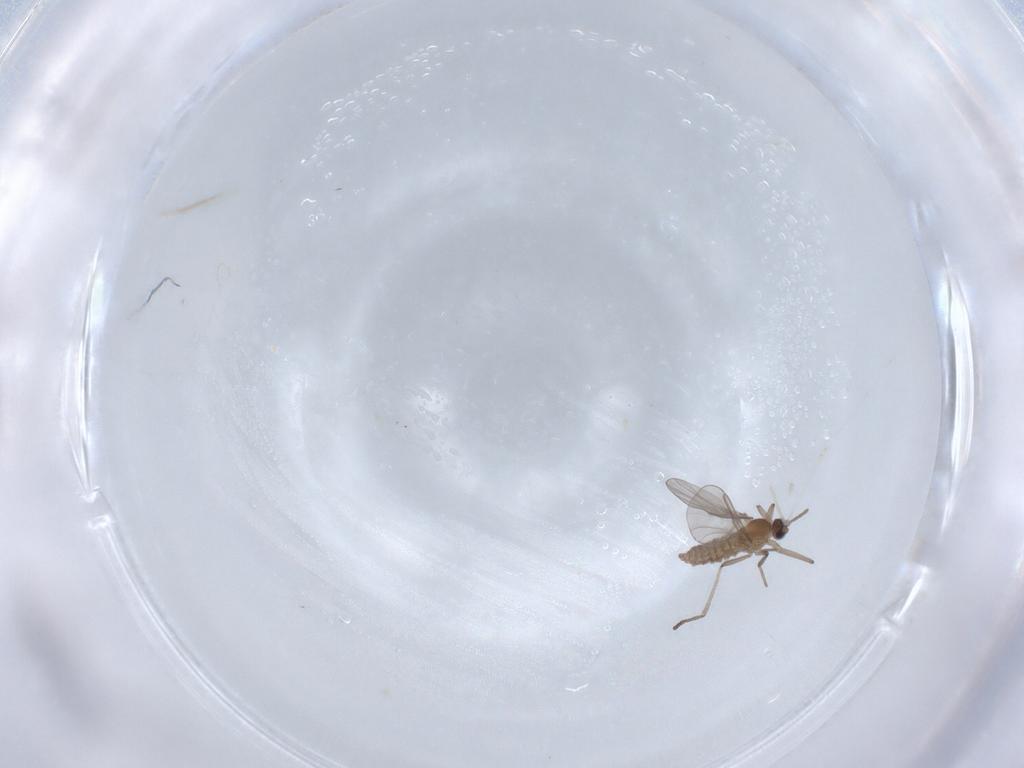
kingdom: Animalia
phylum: Arthropoda
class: Insecta
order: Diptera
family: Cecidomyiidae
